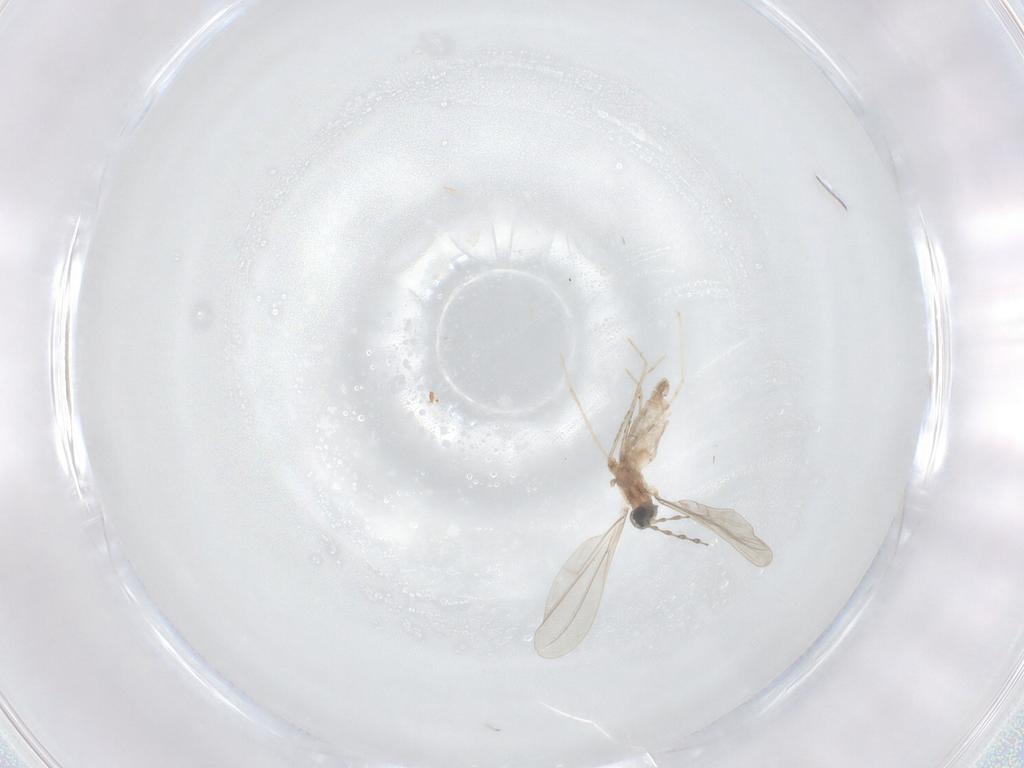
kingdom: Animalia
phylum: Arthropoda
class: Insecta
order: Diptera
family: Cecidomyiidae
